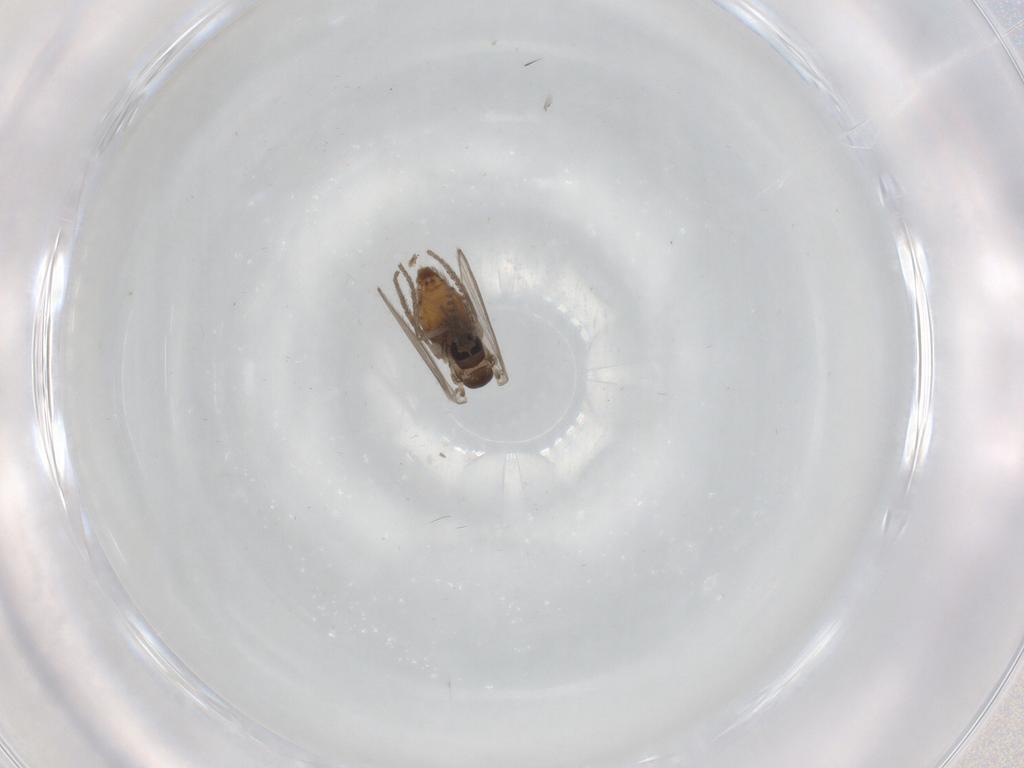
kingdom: Animalia
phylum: Arthropoda
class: Insecta
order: Diptera
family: Psychodidae
